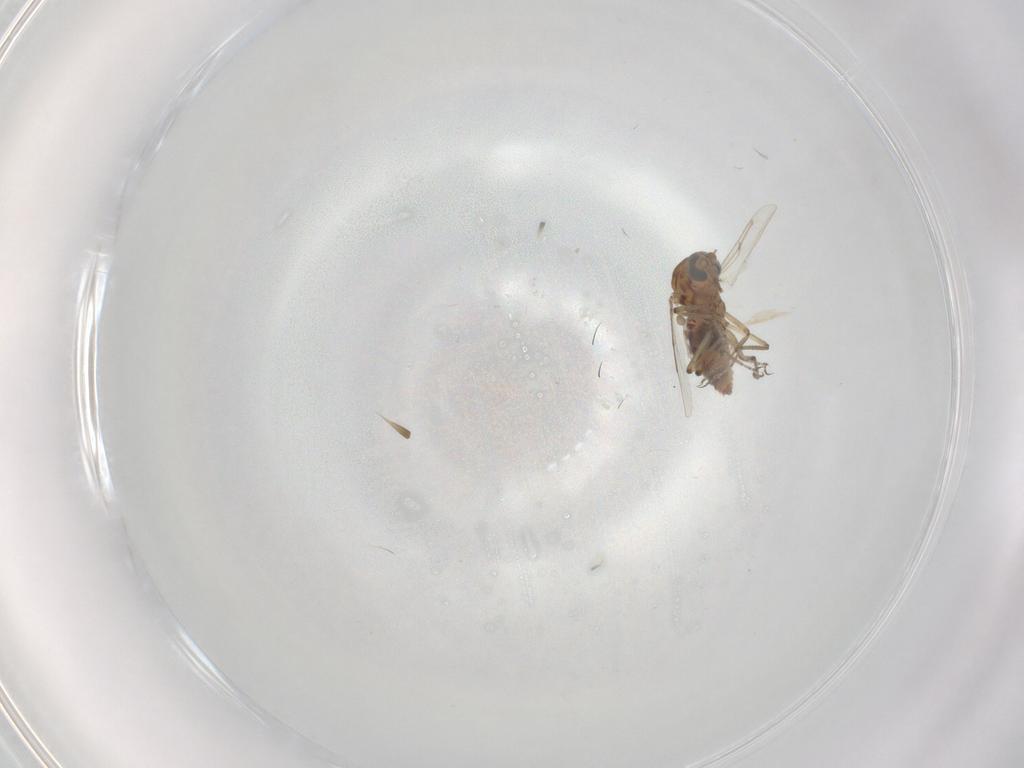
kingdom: Animalia
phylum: Arthropoda
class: Insecta
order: Diptera
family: Ceratopogonidae
